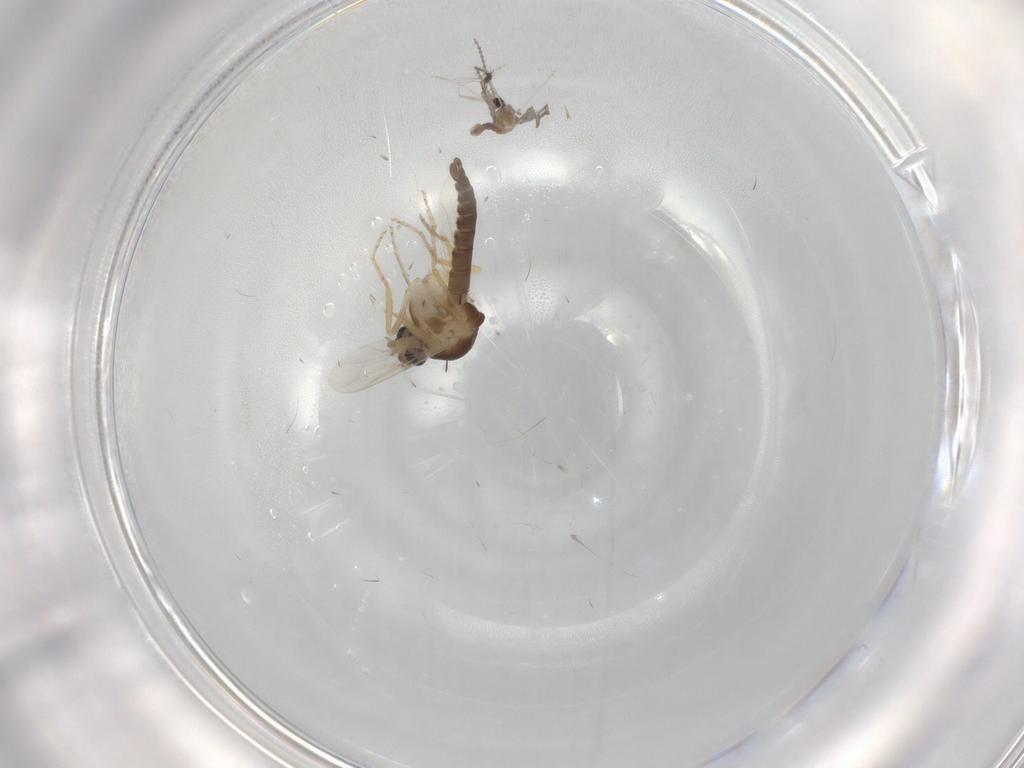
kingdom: Animalia
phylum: Arthropoda
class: Insecta
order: Diptera
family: Ceratopogonidae
